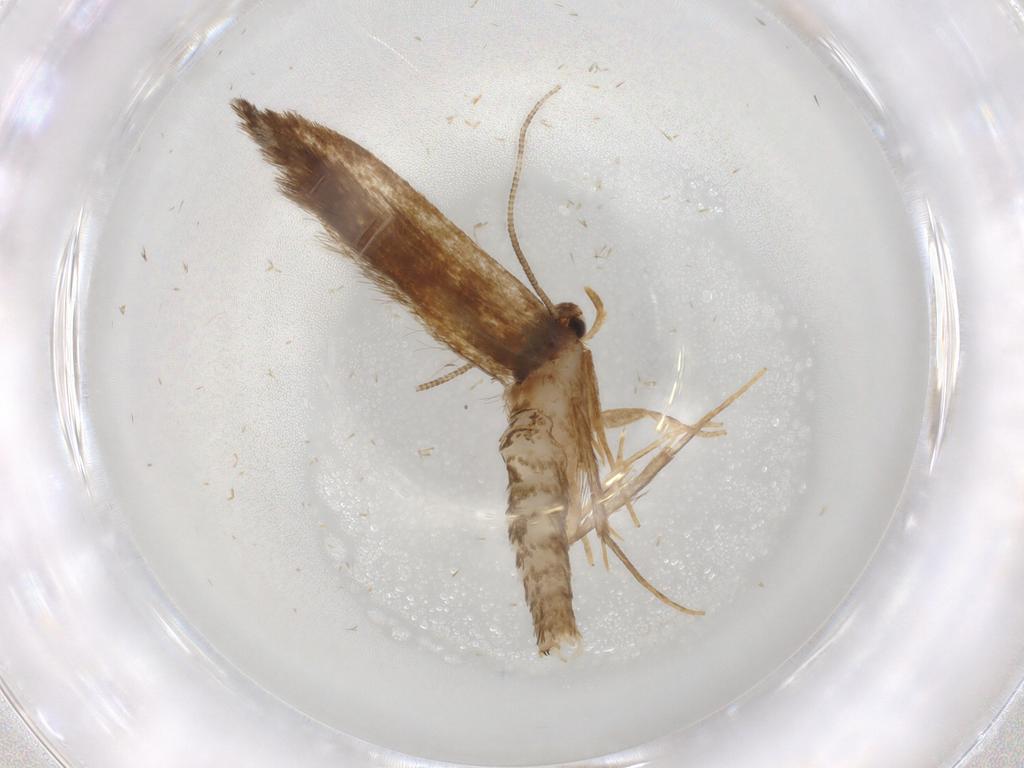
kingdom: Animalia
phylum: Arthropoda
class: Insecta
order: Lepidoptera
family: Tineidae
